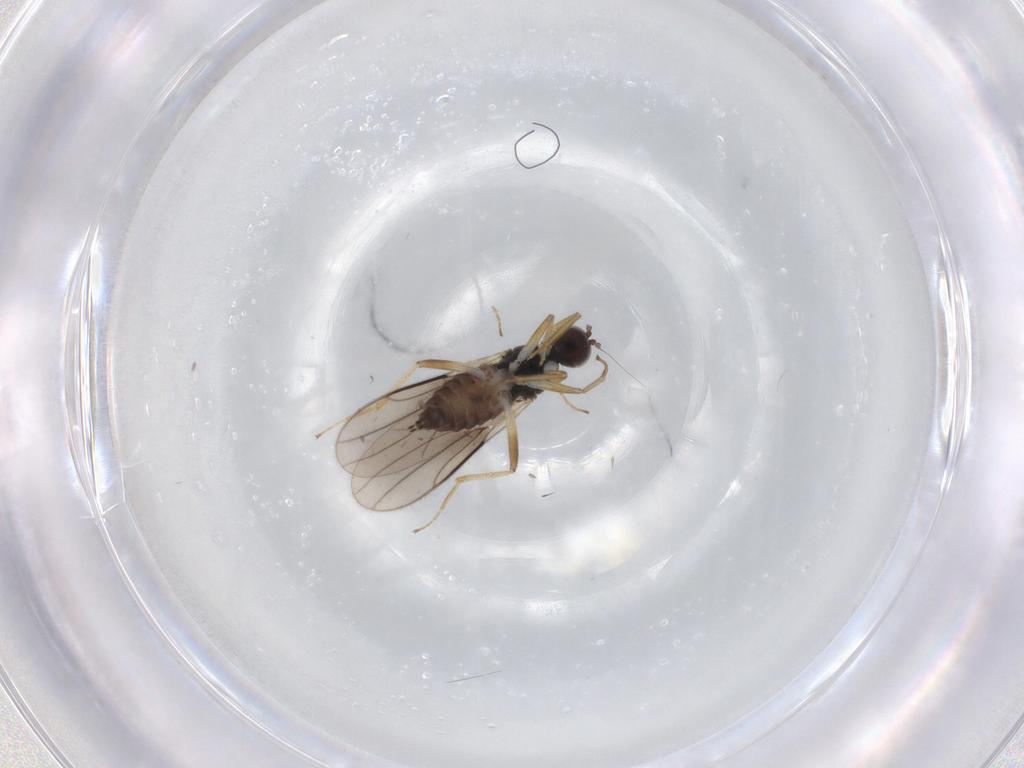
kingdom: Animalia
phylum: Arthropoda
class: Insecta
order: Diptera
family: Hybotidae
